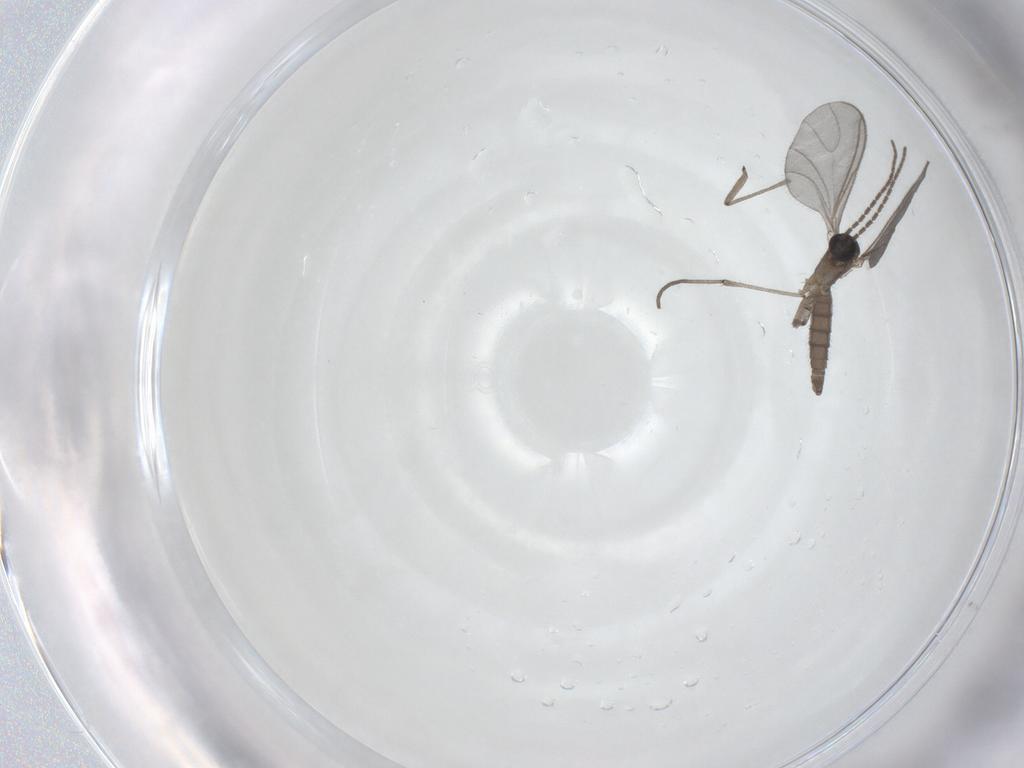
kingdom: Animalia
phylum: Arthropoda
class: Insecta
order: Diptera
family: Sciaridae
